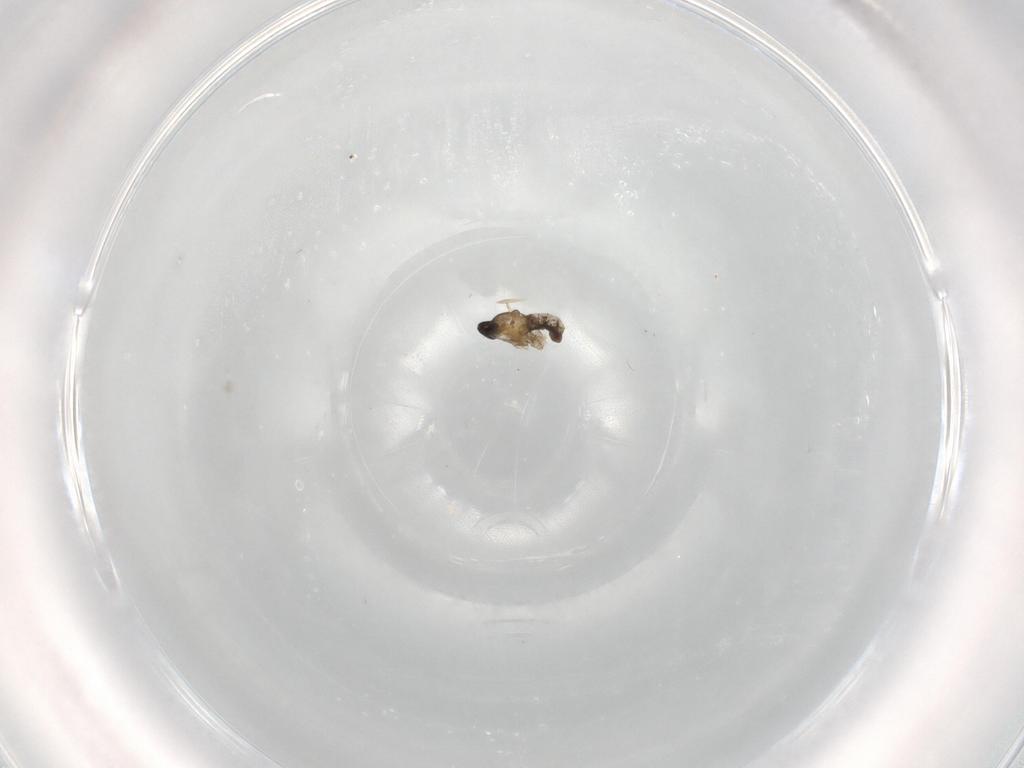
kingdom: Animalia
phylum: Arthropoda
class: Insecta
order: Diptera
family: Cecidomyiidae
